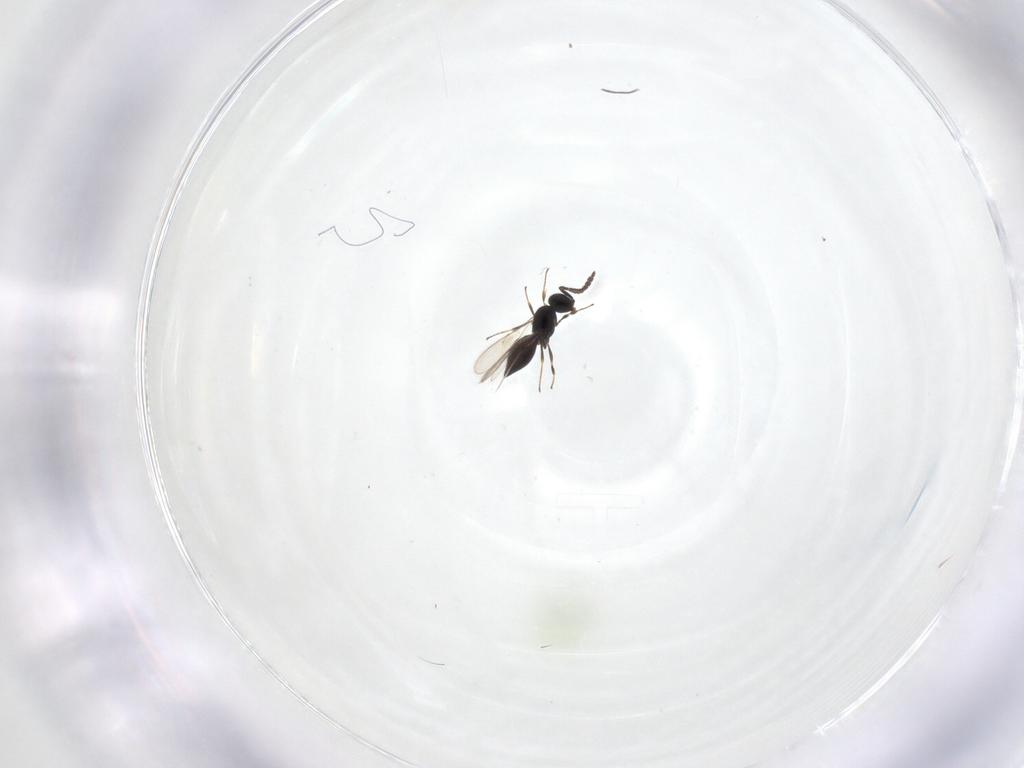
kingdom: Animalia
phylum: Arthropoda
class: Insecta
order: Hymenoptera
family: Scelionidae
